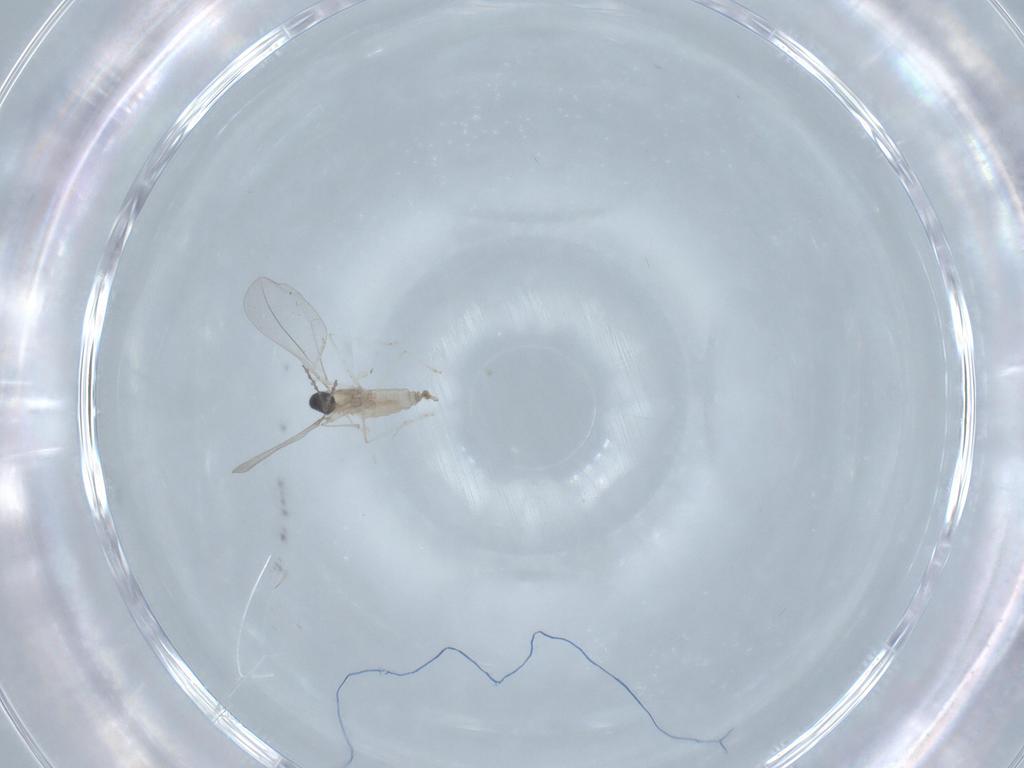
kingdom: Animalia
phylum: Arthropoda
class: Insecta
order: Diptera
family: Cecidomyiidae
